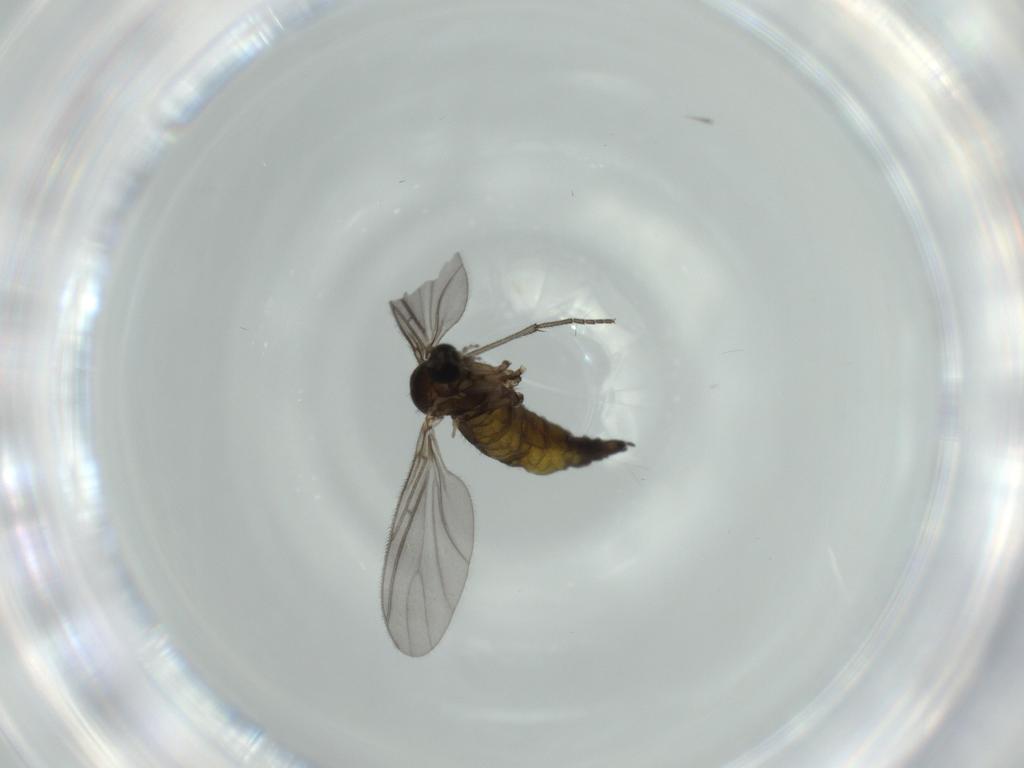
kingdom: Animalia
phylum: Arthropoda
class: Insecta
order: Diptera
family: Sciaridae
